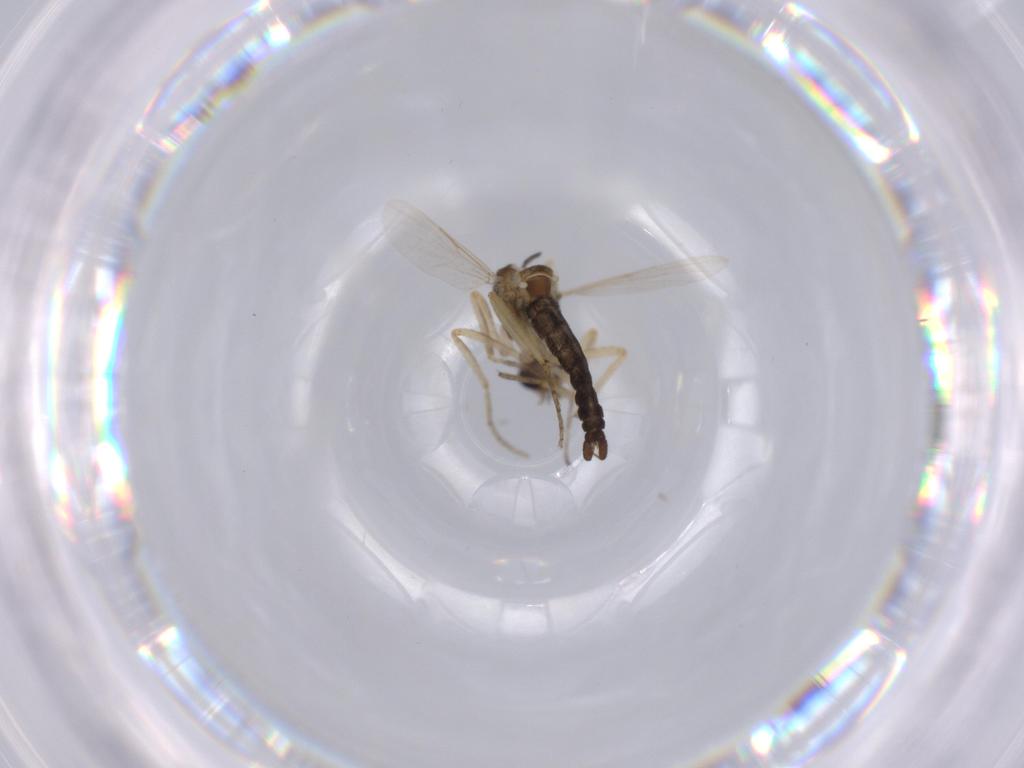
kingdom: Animalia
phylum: Arthropoda
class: Insecta
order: Diptera
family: Ceratopogonidae
